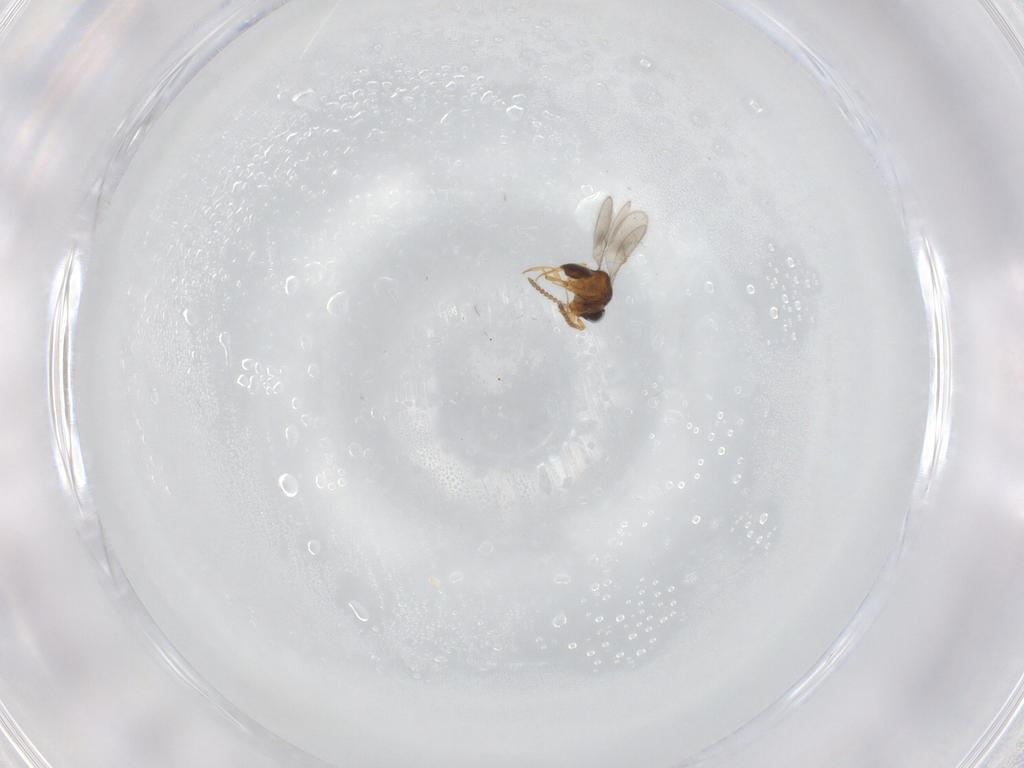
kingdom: Animalia
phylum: Arthropoda
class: Insecta
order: Hymenoptera
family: Scelionidae
